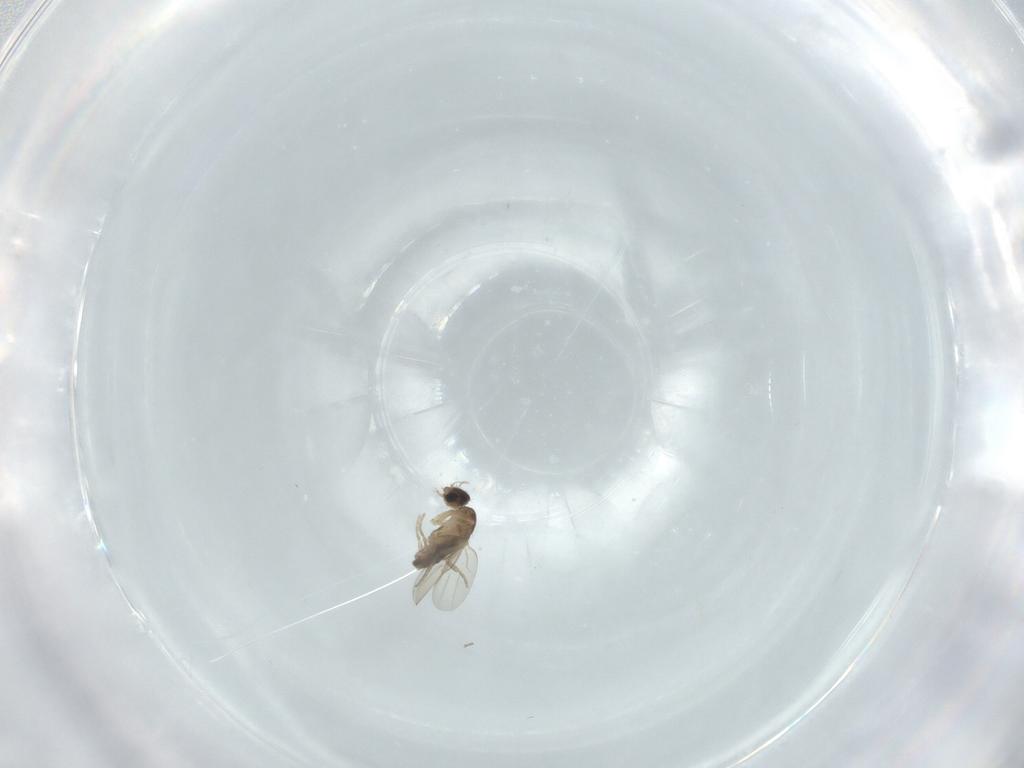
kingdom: Animalia
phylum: Arthropoda
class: Insecta
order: Diptera
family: Phoridae
